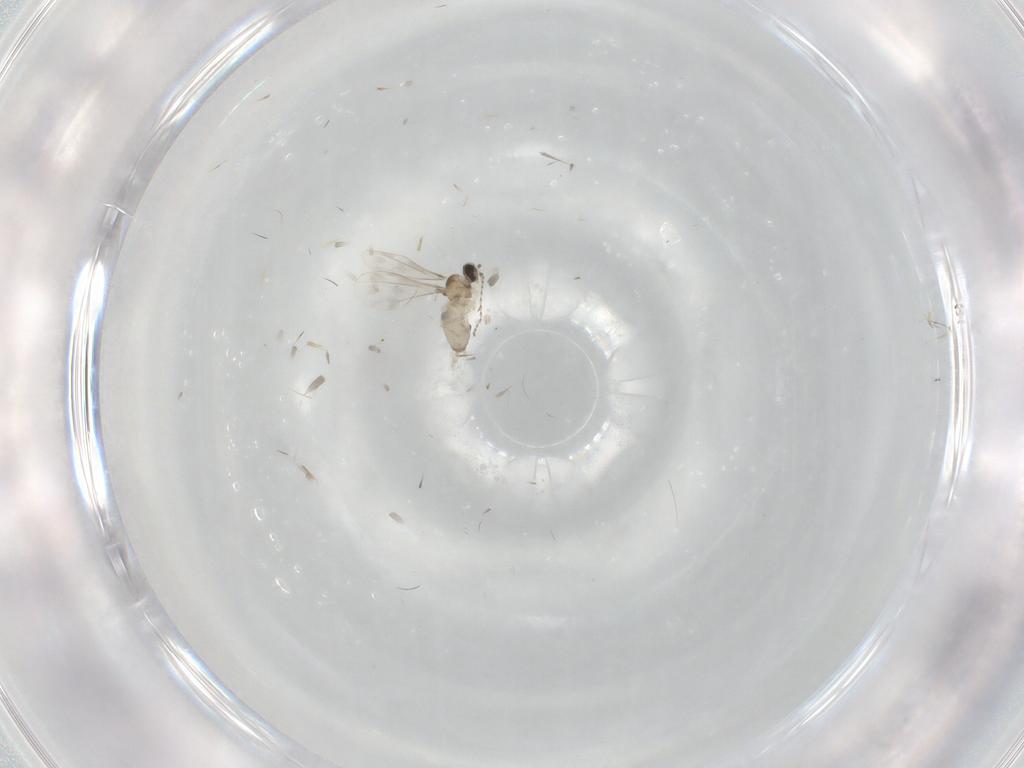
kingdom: Animalia
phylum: Arthropoda
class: Insecta
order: Diptera
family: Cecidomyiidae
